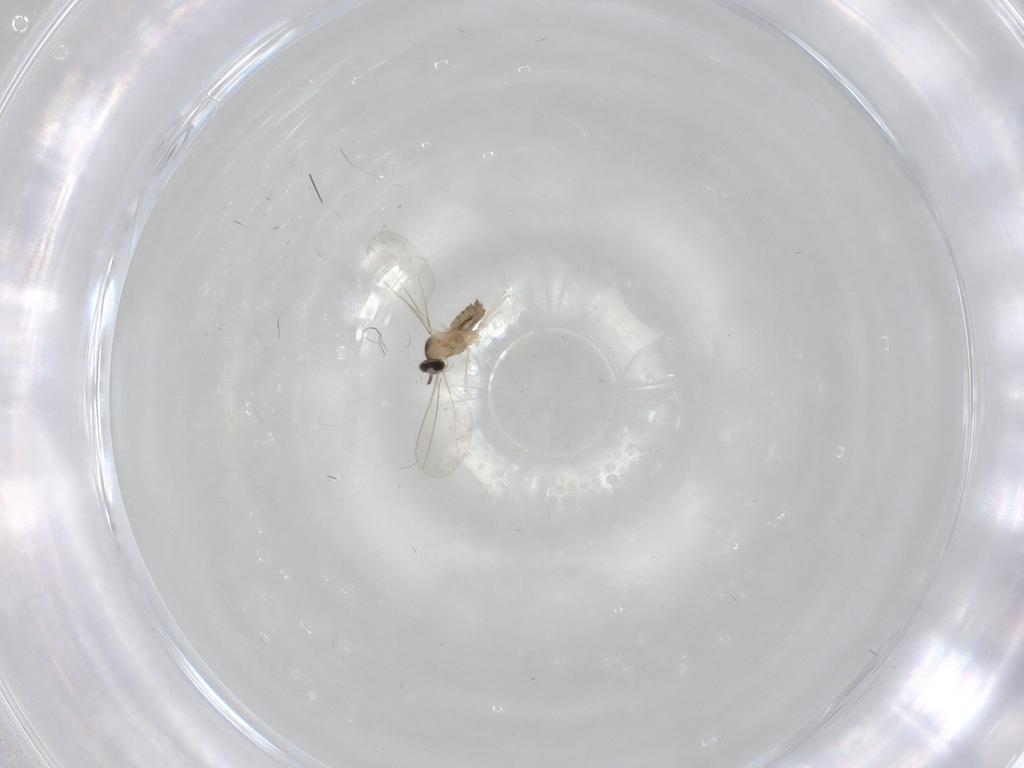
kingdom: Animalia
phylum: Arthropoda
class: Insecta
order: Diptera
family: Cecidomyiidae
